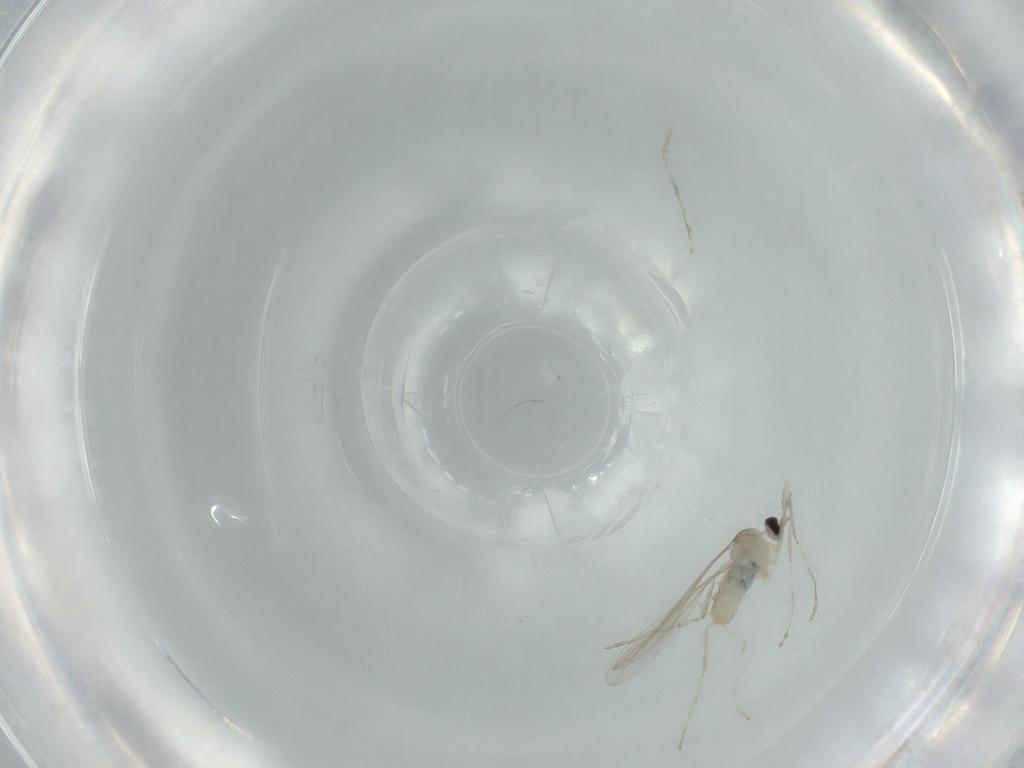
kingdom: Animalia
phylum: Arthropoda
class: Insecta
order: Diptera
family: Cecidomyiidae
